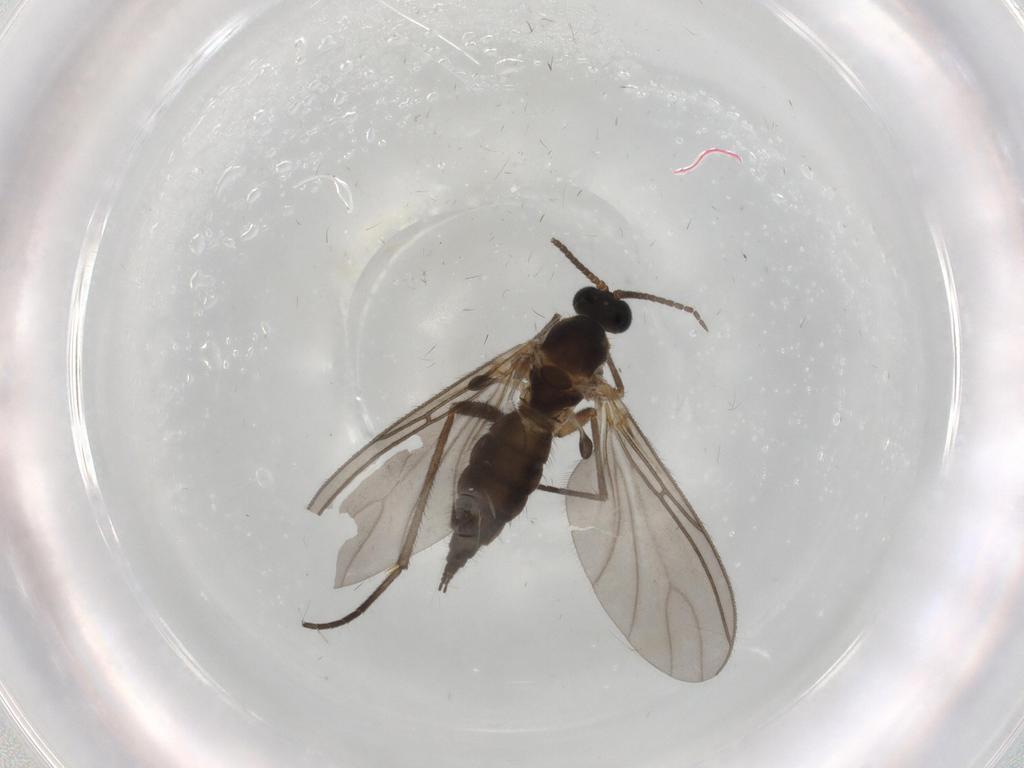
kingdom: Animalia
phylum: Arthropoda
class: Insecta
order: Diptera
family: Sciaridae
